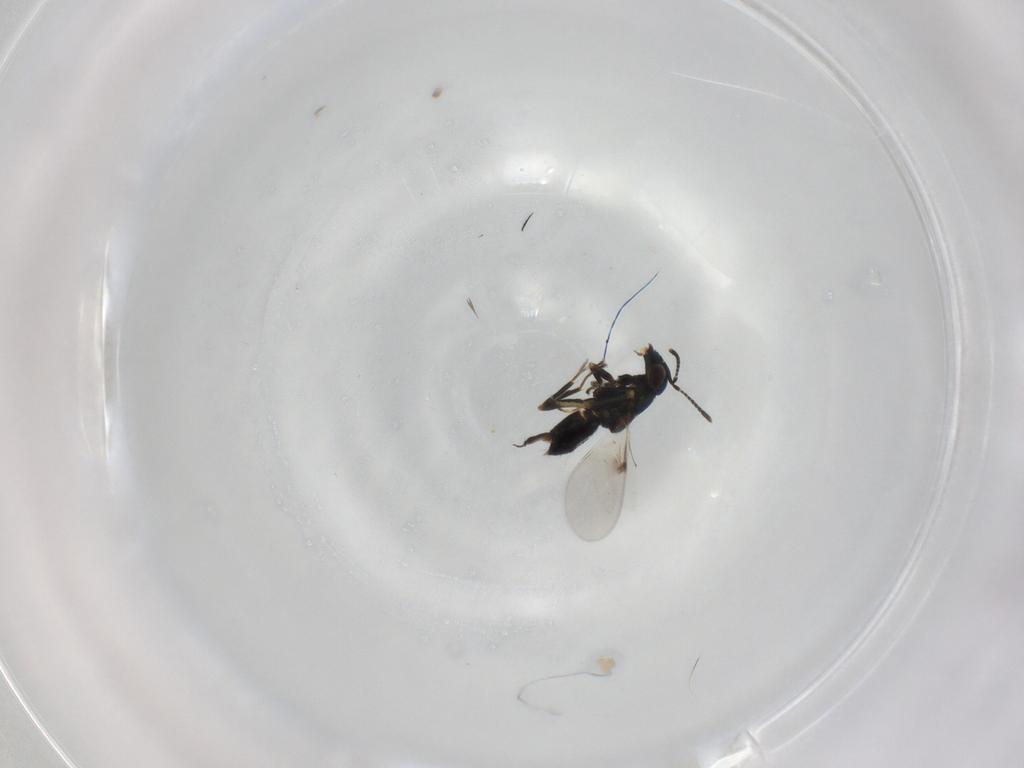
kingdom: Animalia
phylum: Arthropoda
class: Insecta
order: Hymenoptera
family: Encyrtidae
